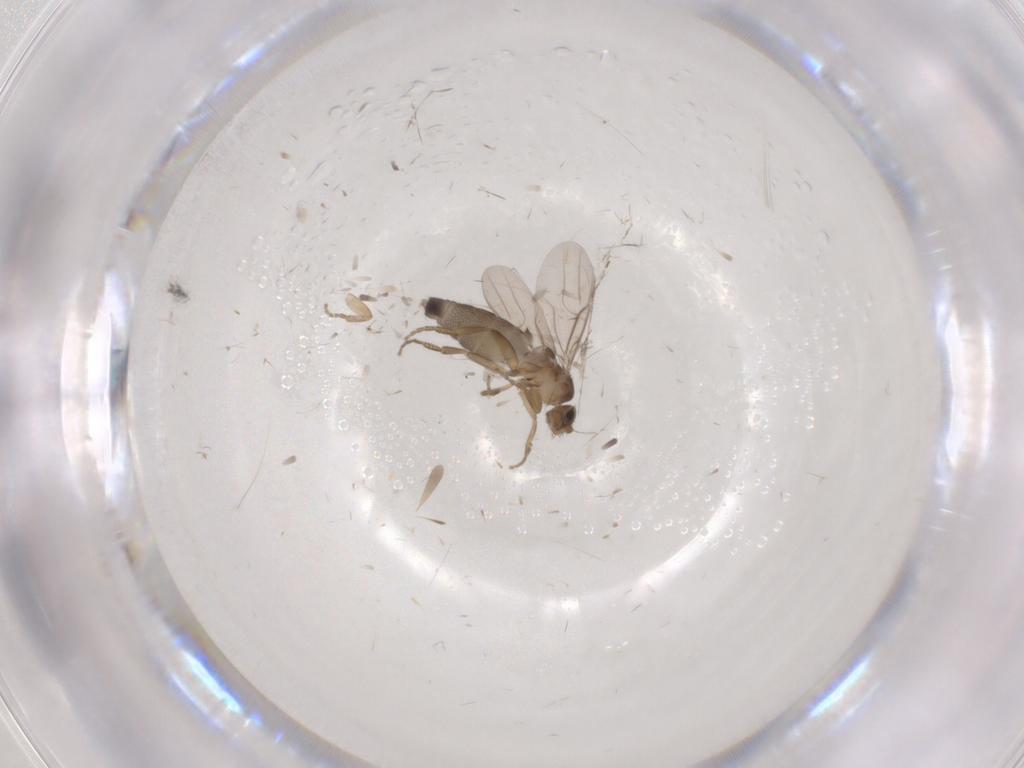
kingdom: Animalia
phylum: Arthropoda
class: Insecta
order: Diptera
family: Phoridae
